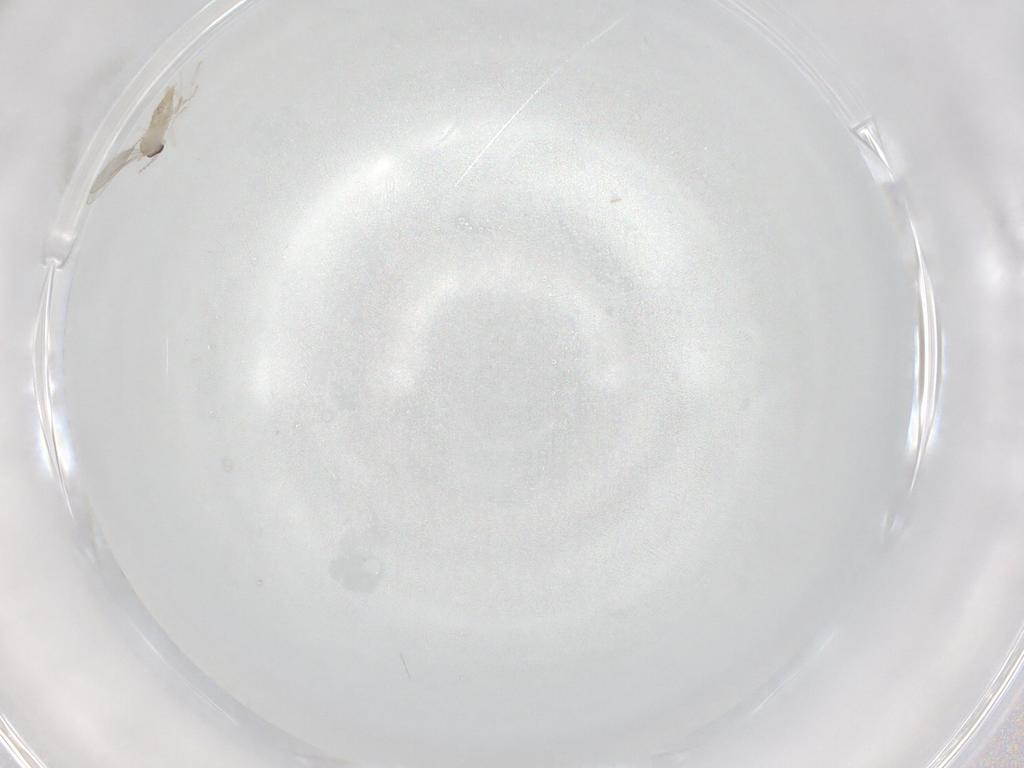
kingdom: Animalia
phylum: Arthropoda
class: Insecta
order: Diptera
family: Cecidomyiidae
